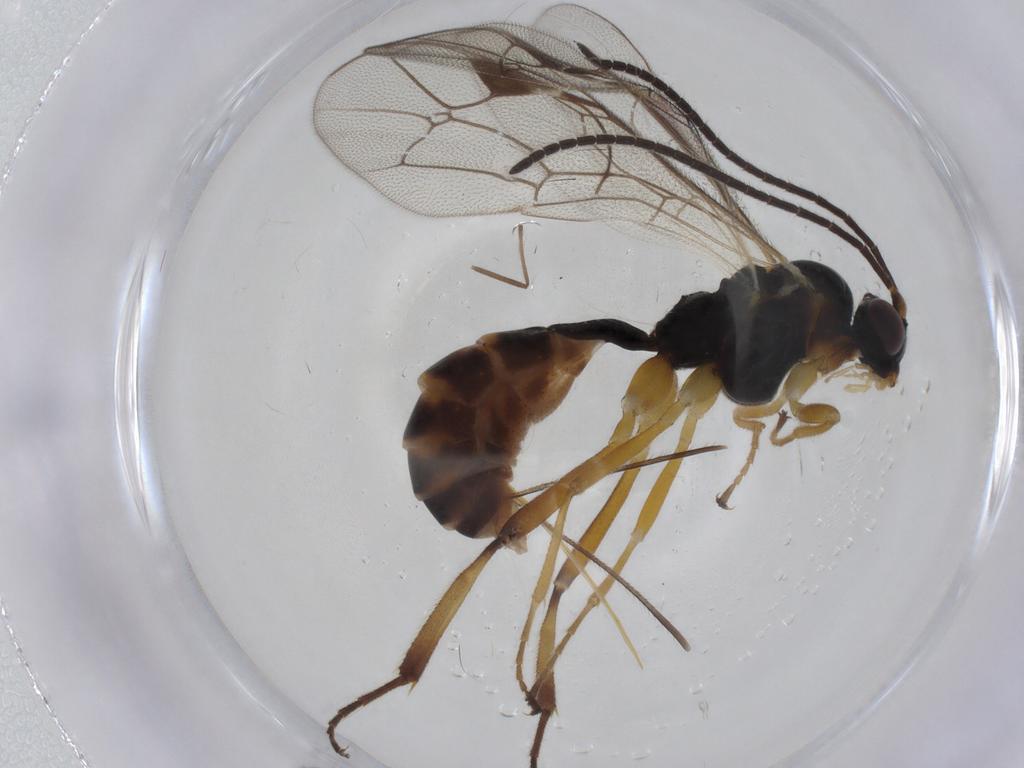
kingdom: Animalia
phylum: Arthropoda
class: Insecta
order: Hymenoptera
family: Ichneumonidae
